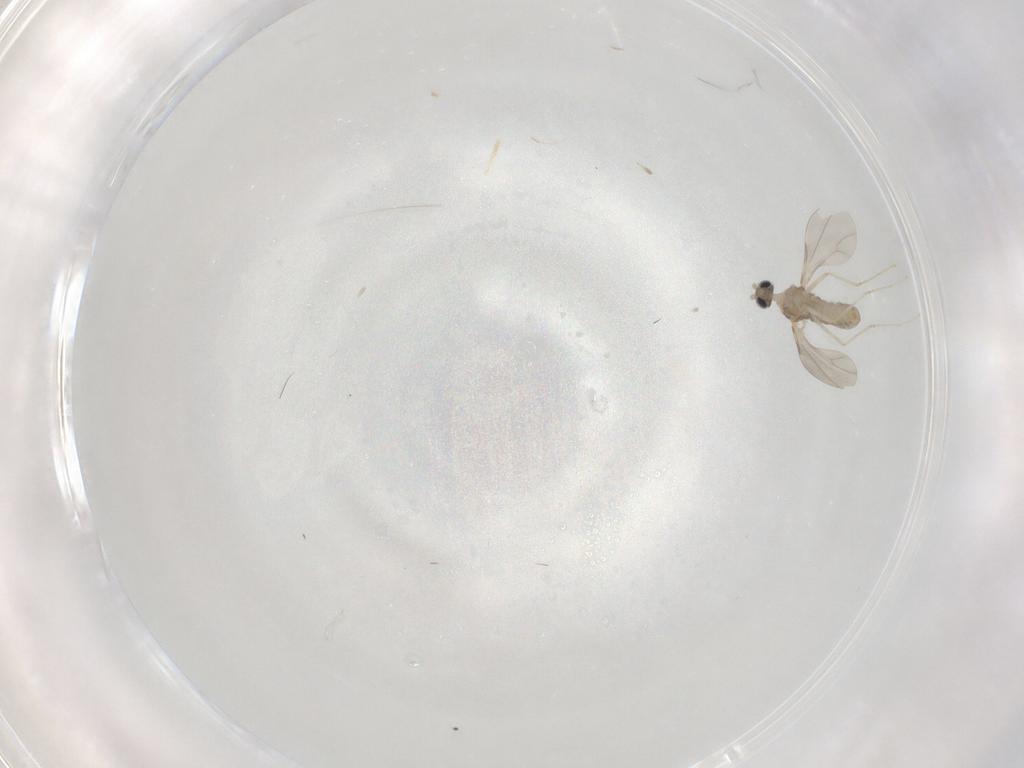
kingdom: Animalia
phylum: Arthropoda
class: Insecta
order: Diptera
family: Cecidomyiidae
